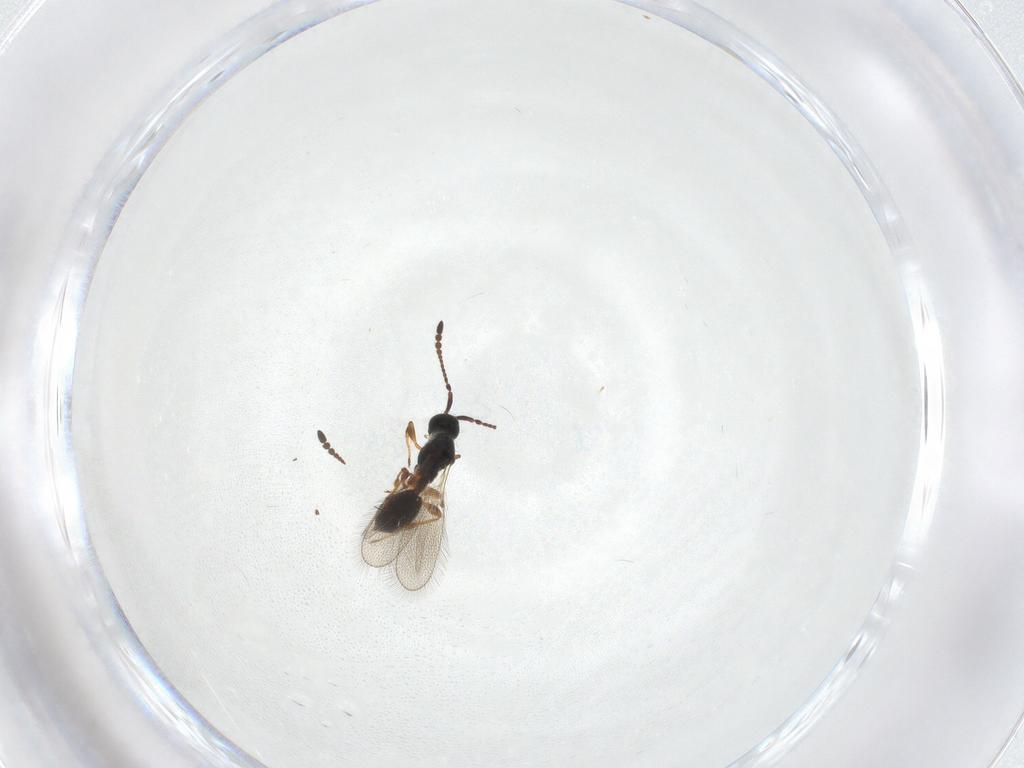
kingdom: Animalia
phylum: Arthropoda
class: Insecta
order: Hymenoptera
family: Diapriidae
